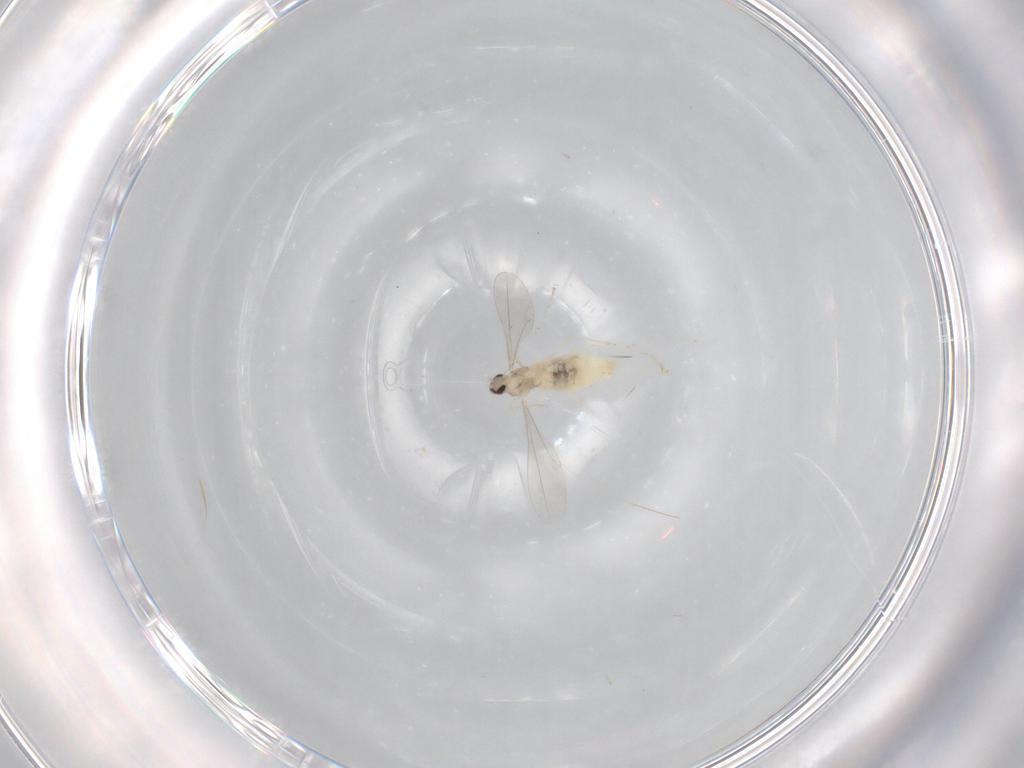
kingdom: Animalia
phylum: Arthropoda
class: Insecta
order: Diptera
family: Cecidomyiidae
